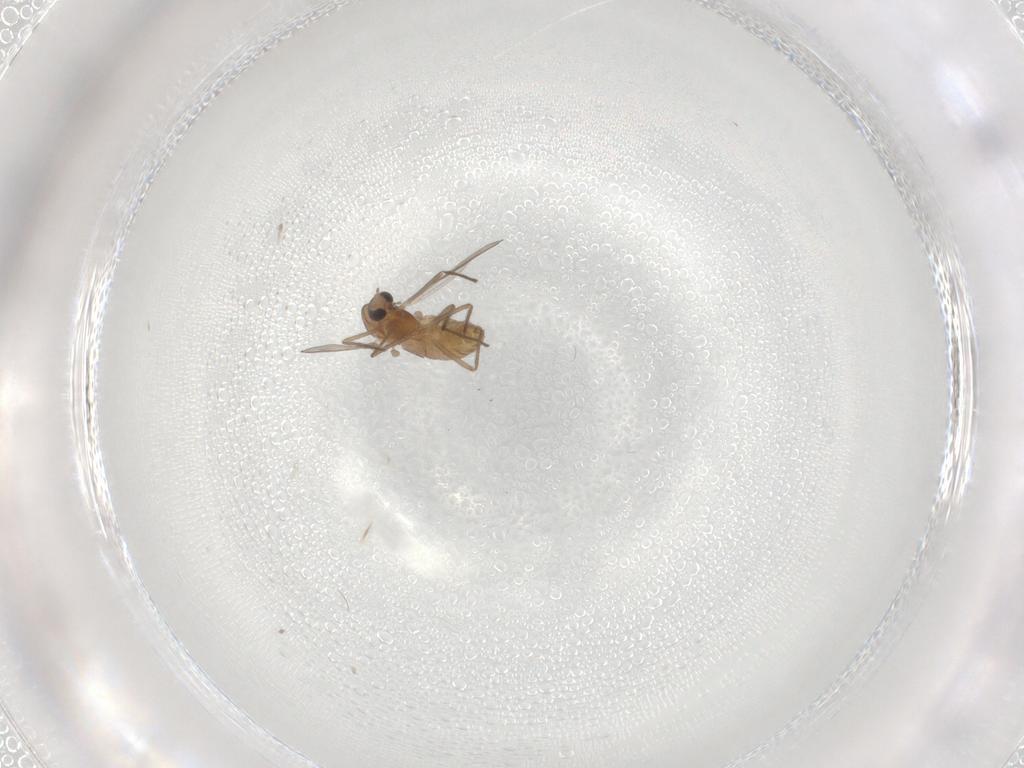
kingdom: Animalia
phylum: Arthropoda
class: Insecta
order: Diptera
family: Chironomidae
